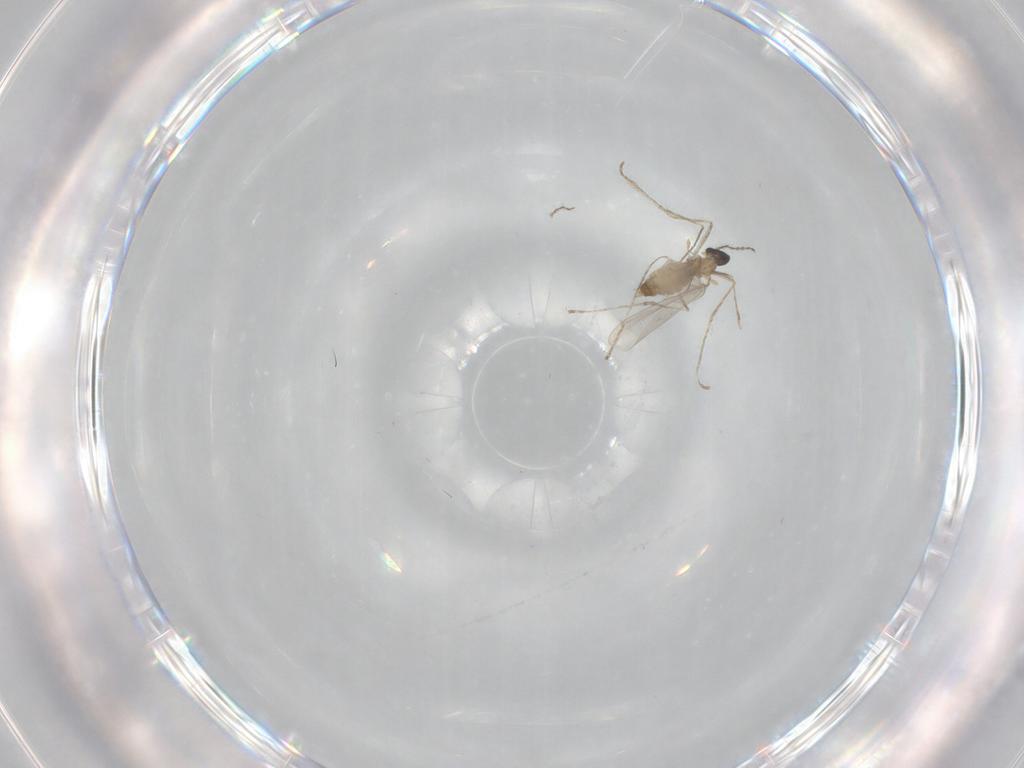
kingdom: Animalia
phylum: Arthropoda
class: Insecta
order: Diptera
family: Cecidomyiidae
